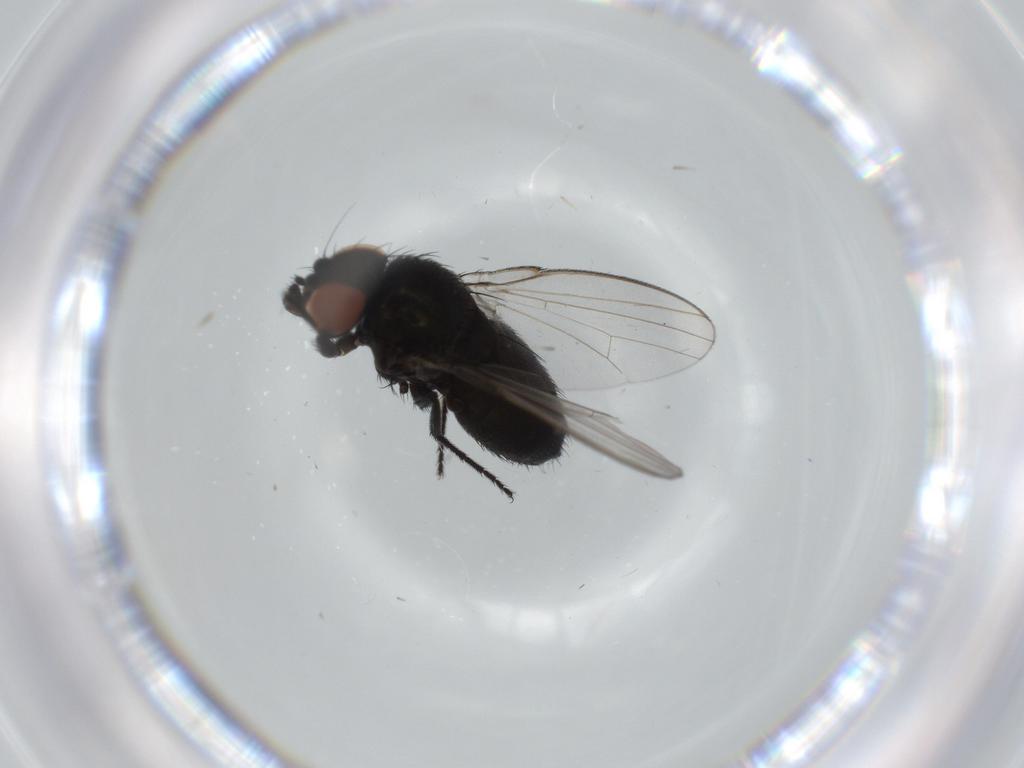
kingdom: Animalia
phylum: Arthropoda
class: Insecta
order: Diptera
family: Milichiidae
